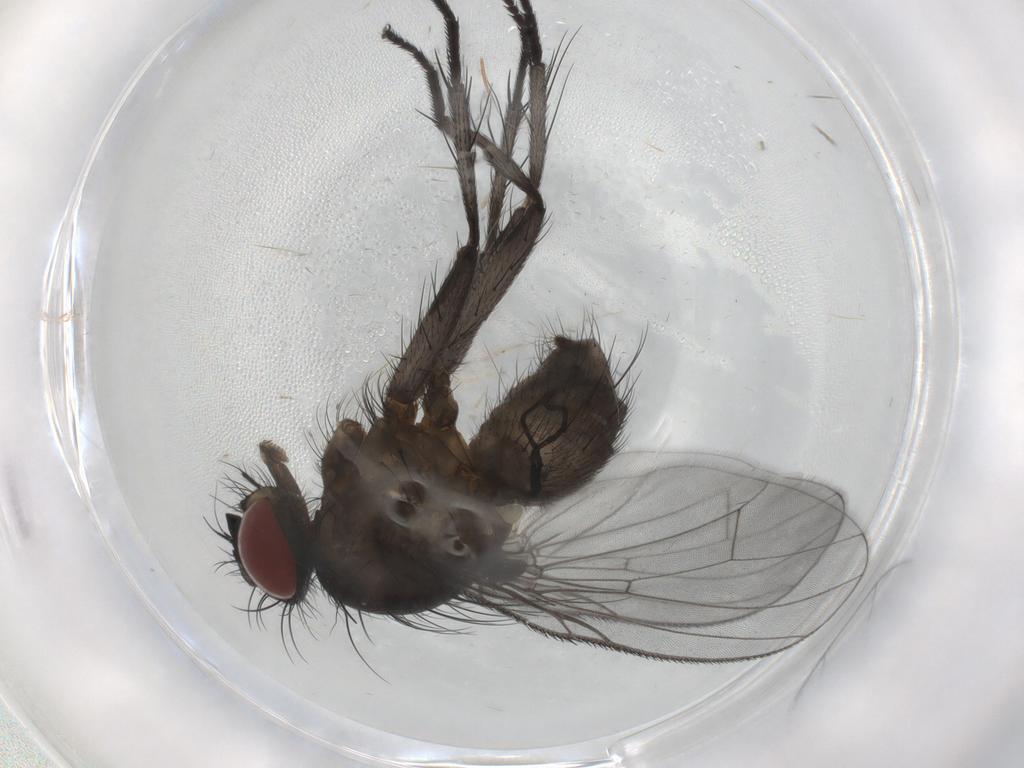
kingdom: Animalia
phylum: Arthropoda
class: Insecta
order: Diptera
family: Muscidae
